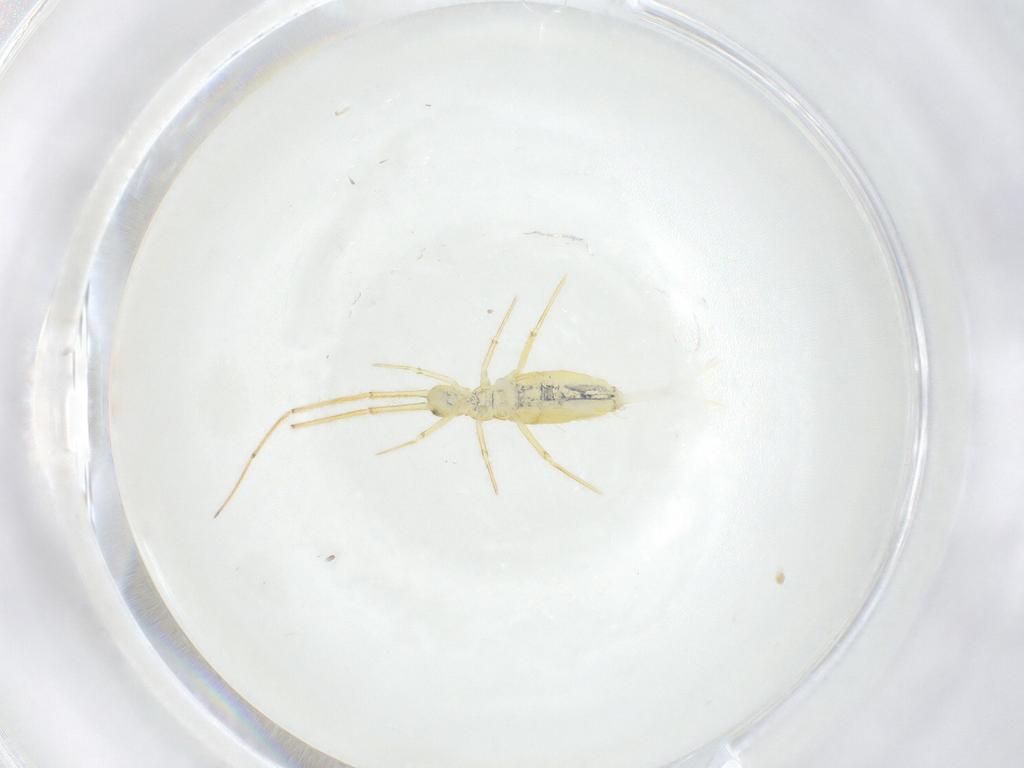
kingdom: Animalia
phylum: Arthropoda
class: Collembola
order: Entomobryomorpha
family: Paronellidae
